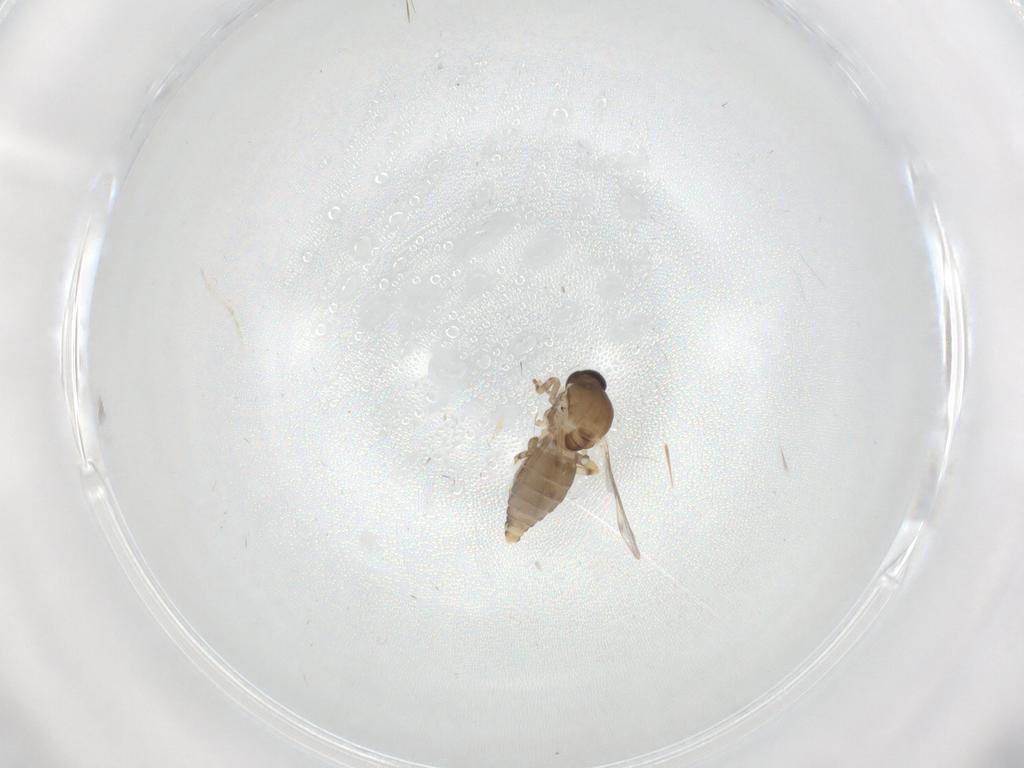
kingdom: Animalia
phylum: Arthropoda
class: Insecta
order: Diptera
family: Ceratopogonidae
